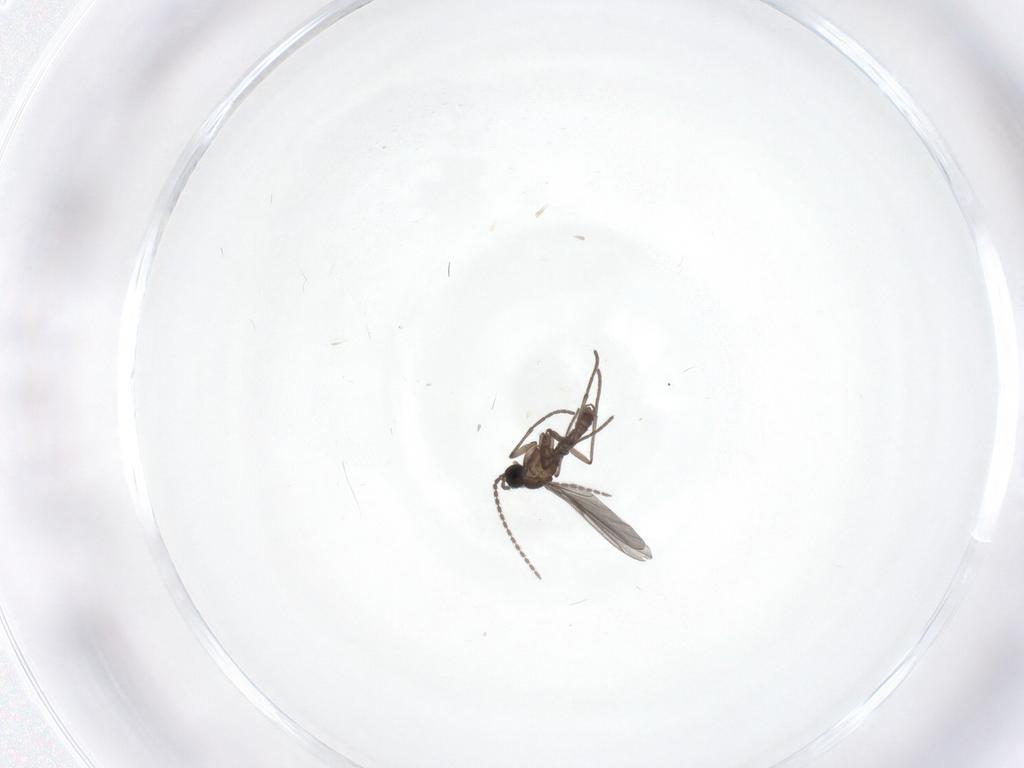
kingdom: Animalia
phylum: Arthropoda
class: Insecta
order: Diptera
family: Sciaridae
